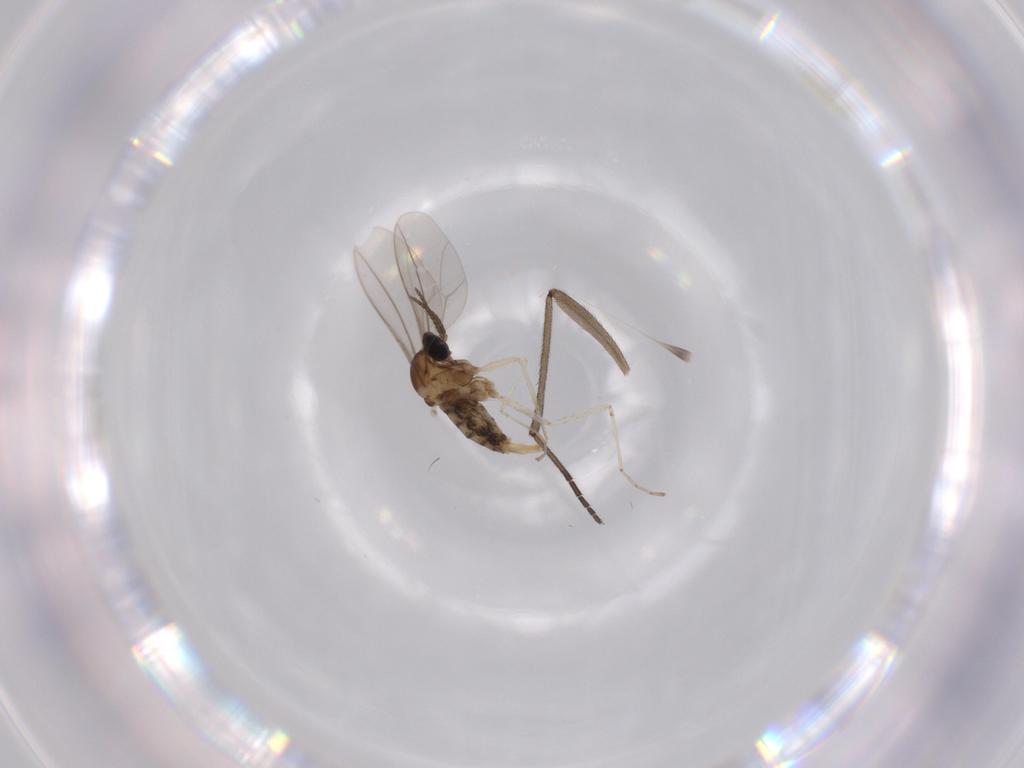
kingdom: Animalia
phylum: Arthropoda
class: Insecta
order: Diptera
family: Cecidomyiidae
